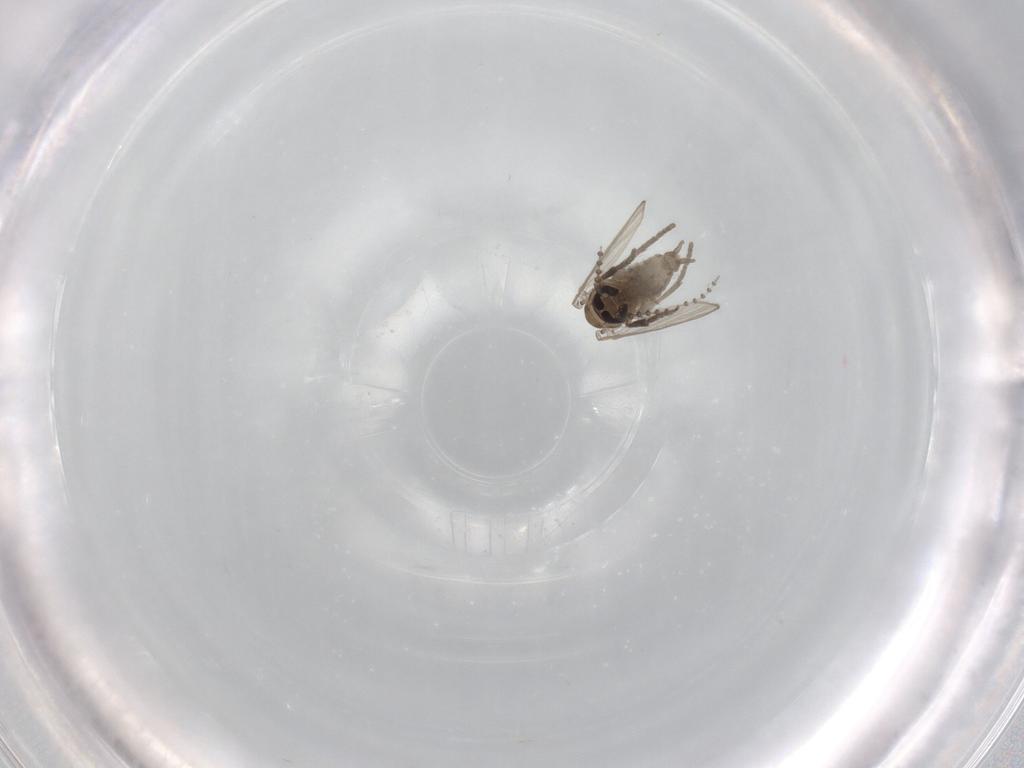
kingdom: Animalia
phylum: Arthropoda
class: Insecta
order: Diptera
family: Psychodidae
